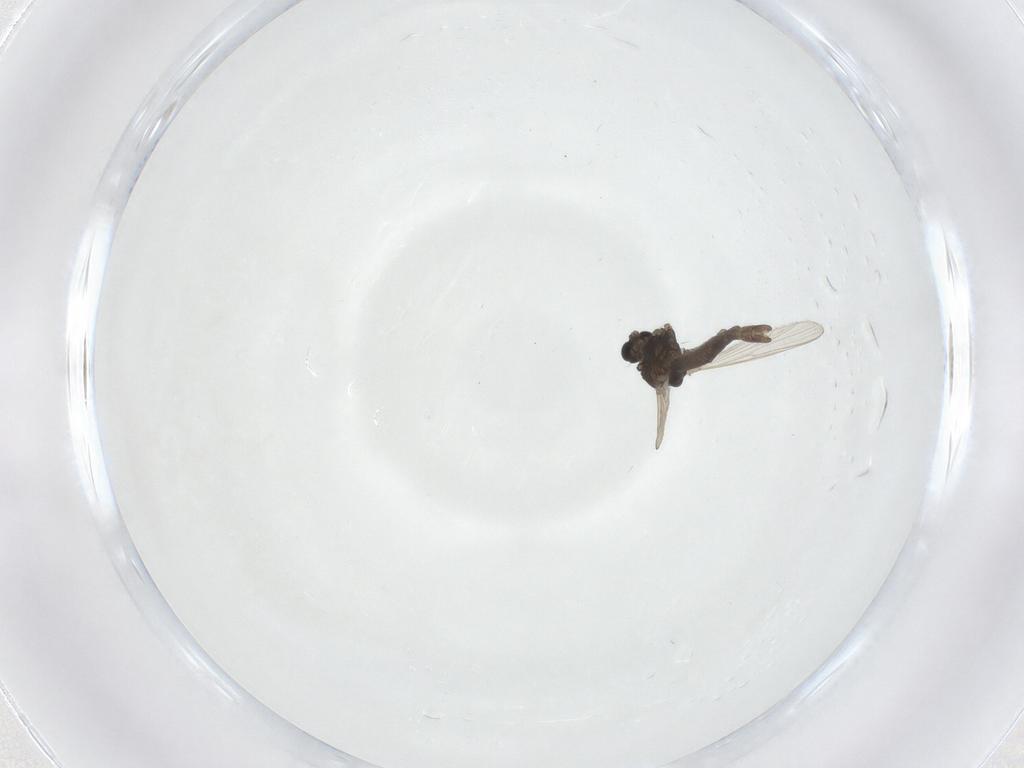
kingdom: Animalia
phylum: Arthropoda
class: Insecta
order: Diptera
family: Chironomidae
